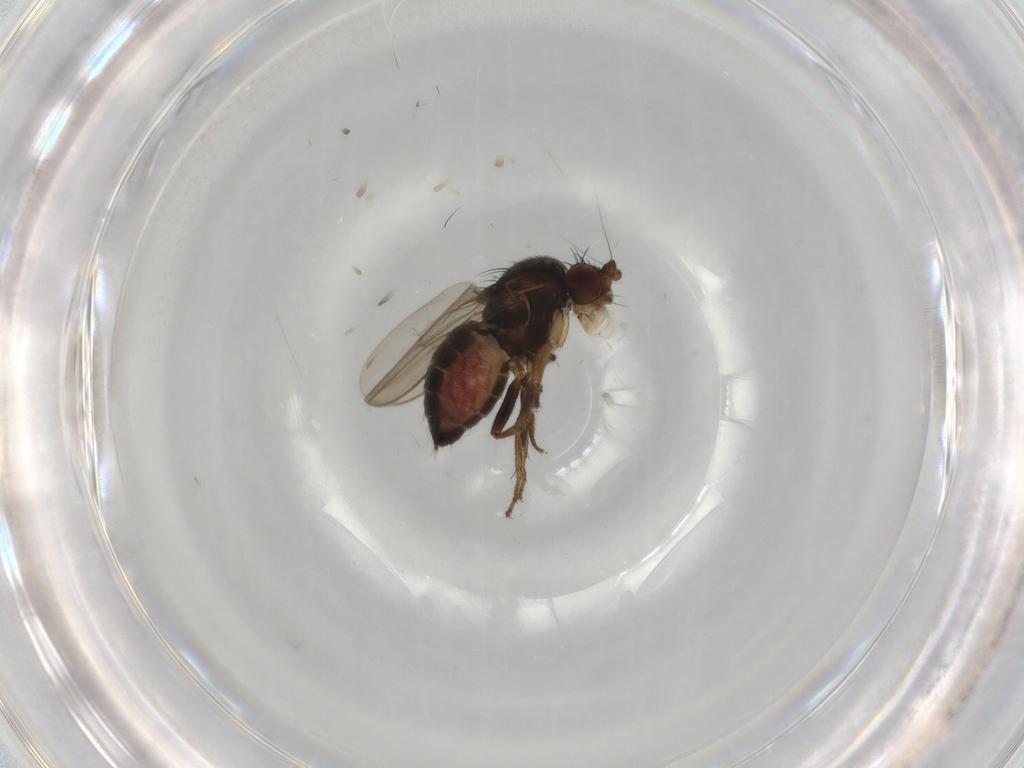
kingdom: Animalia
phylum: Arthropoda
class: Insecta
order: Diptera
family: Sphaeroceridae
